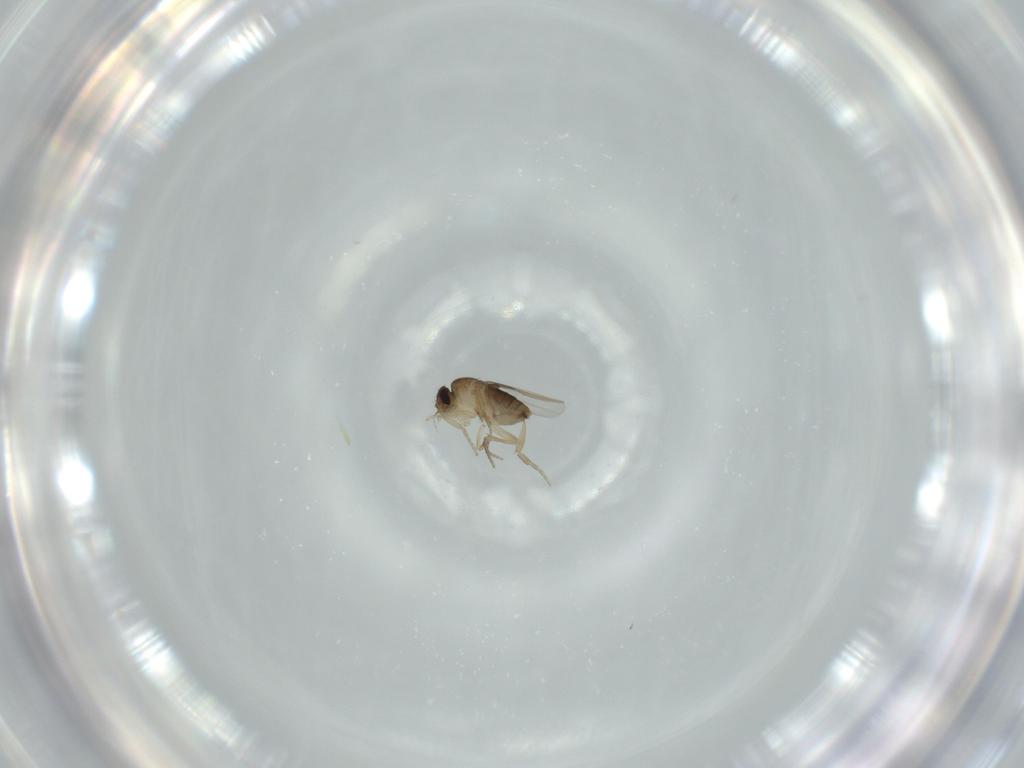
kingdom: Animalia
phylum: Arthropoda
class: Insecta
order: Diptera
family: Phoridae
